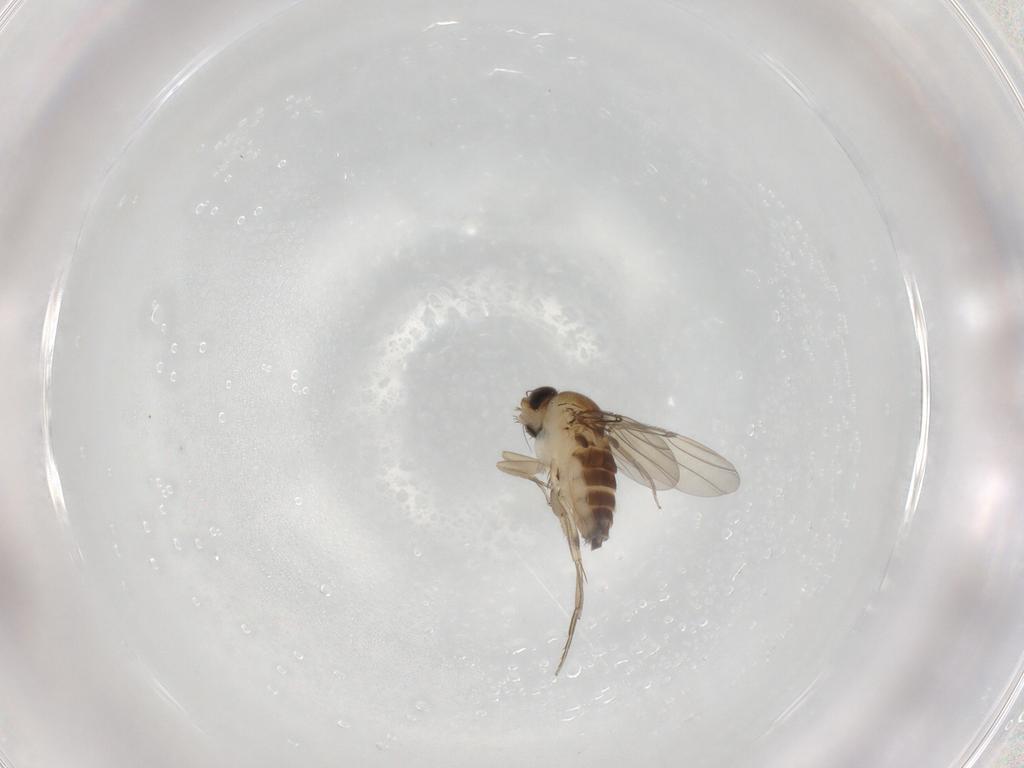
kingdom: Animalia
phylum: Arthropoda
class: Insecta
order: Diptera
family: Phoridae
